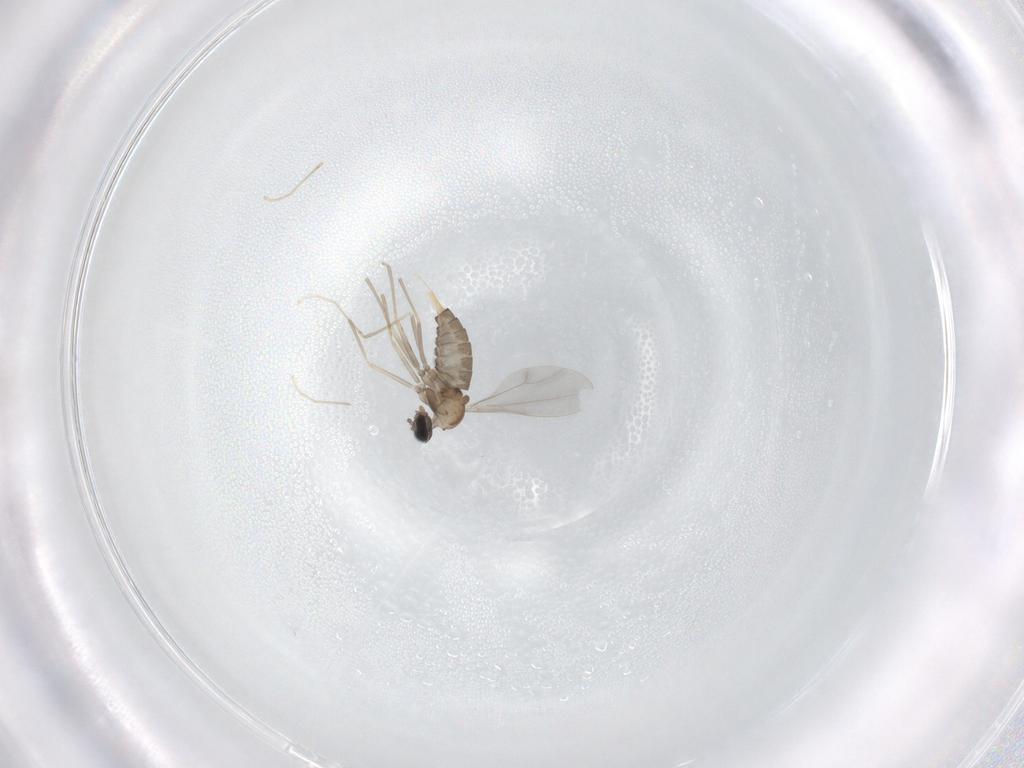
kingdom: Animalia
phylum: Arthropoda
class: Insecta
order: Diptera
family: Cecidomyiidae
